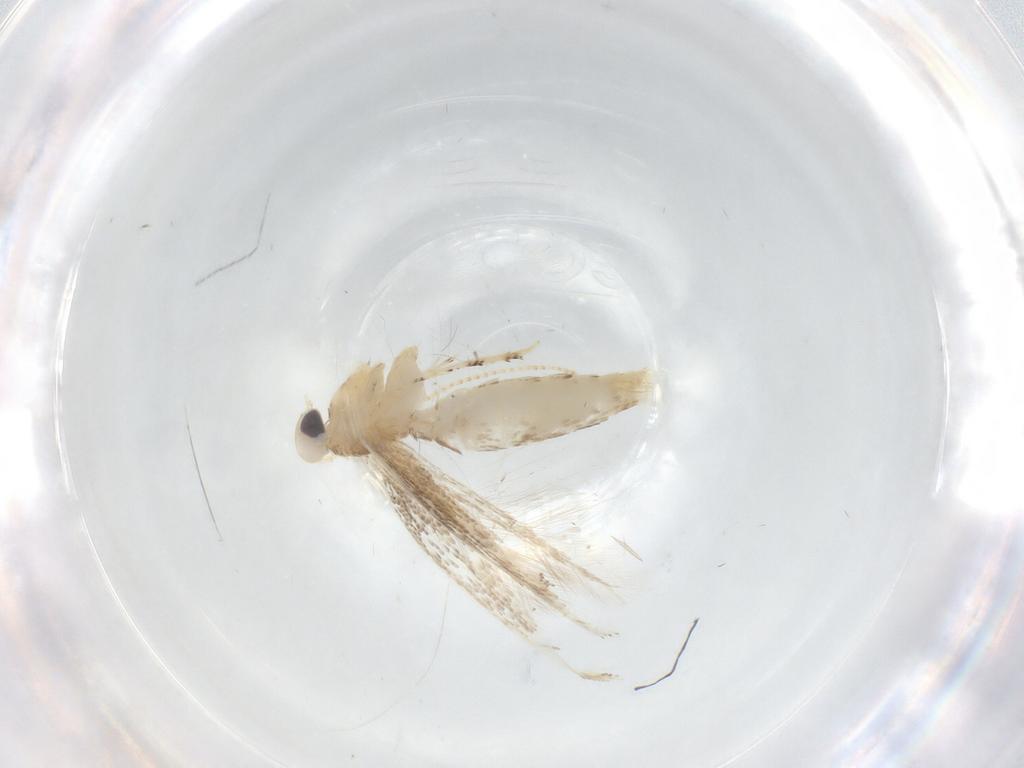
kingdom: Animalia
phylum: Arthropoda
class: Insecta
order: Lepidoptera
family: Gracillariidae
